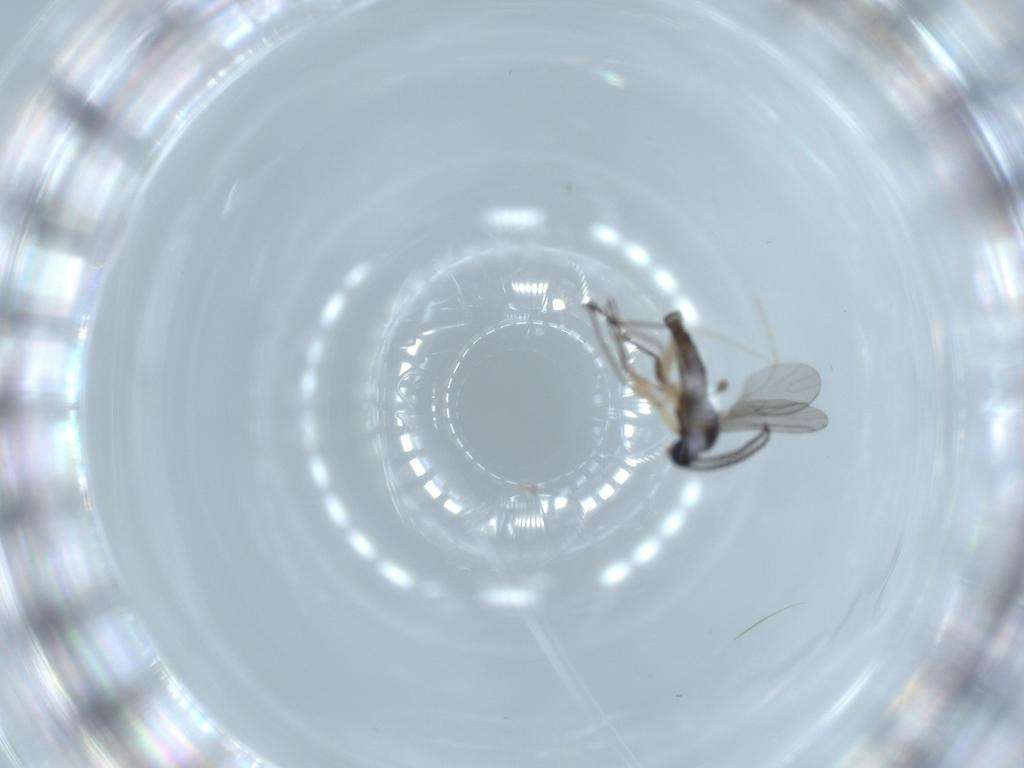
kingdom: Animalia
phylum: Arthropoda
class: Insecta
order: Diptera
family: Sciaridae
